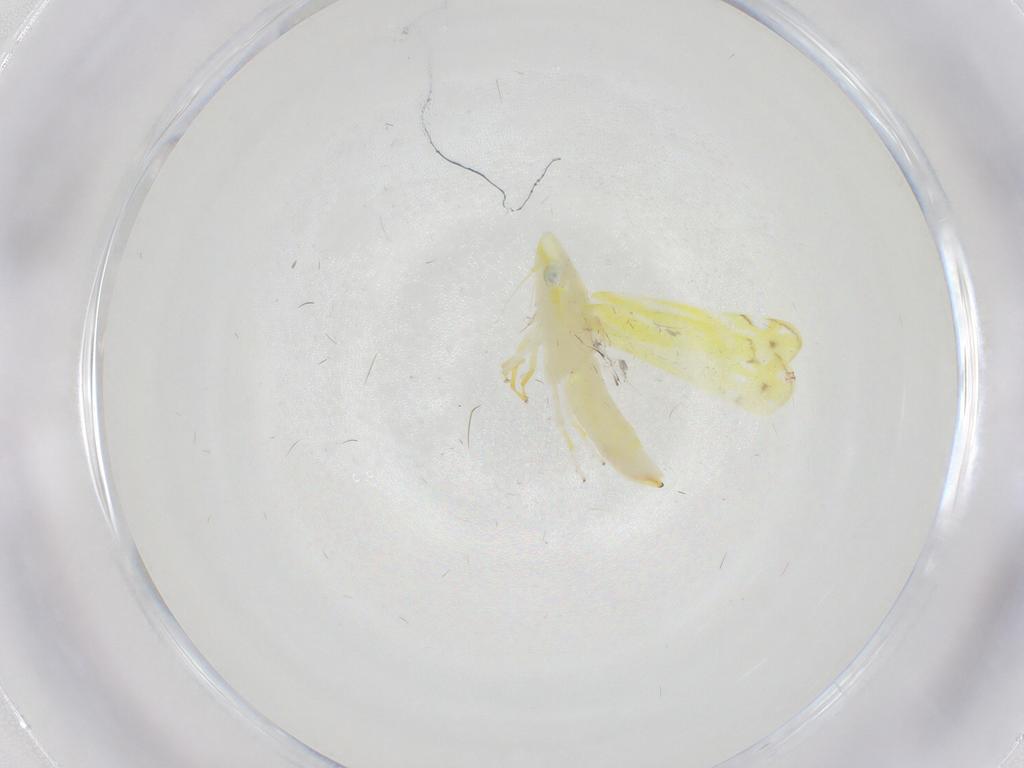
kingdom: Animalia
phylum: Arthropoda
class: Insecta
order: Hemiptera
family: Cicadellidae
